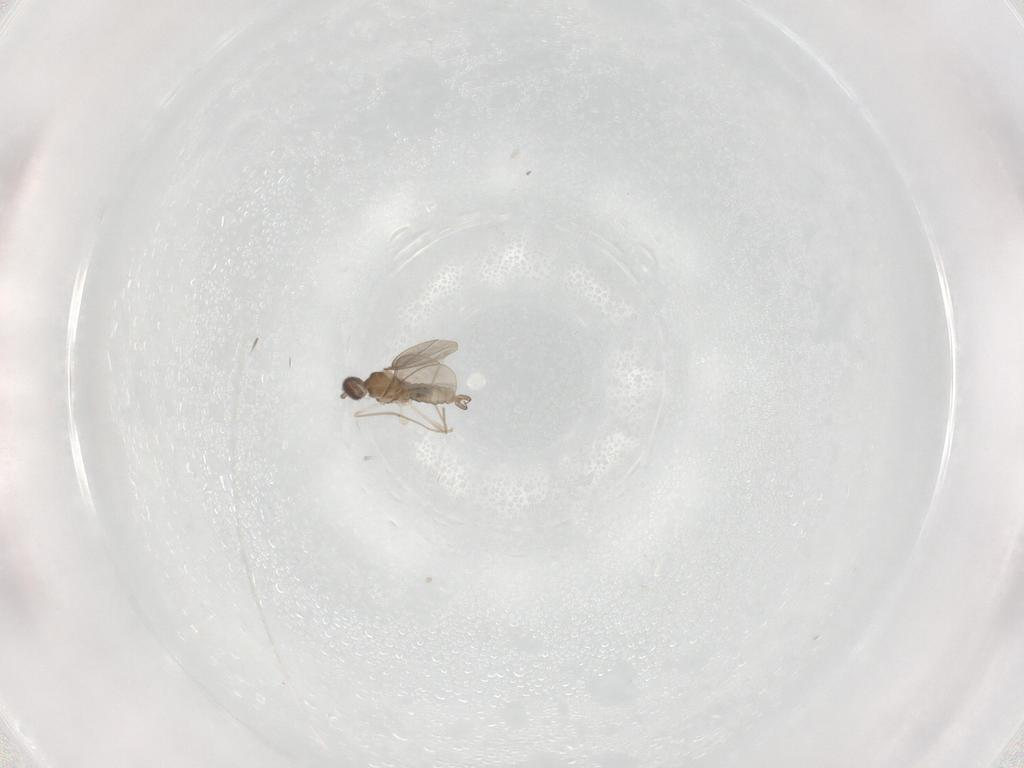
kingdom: Animalia
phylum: Arthropoda
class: Insecta
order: Diptera
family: Cecidomyiidae
